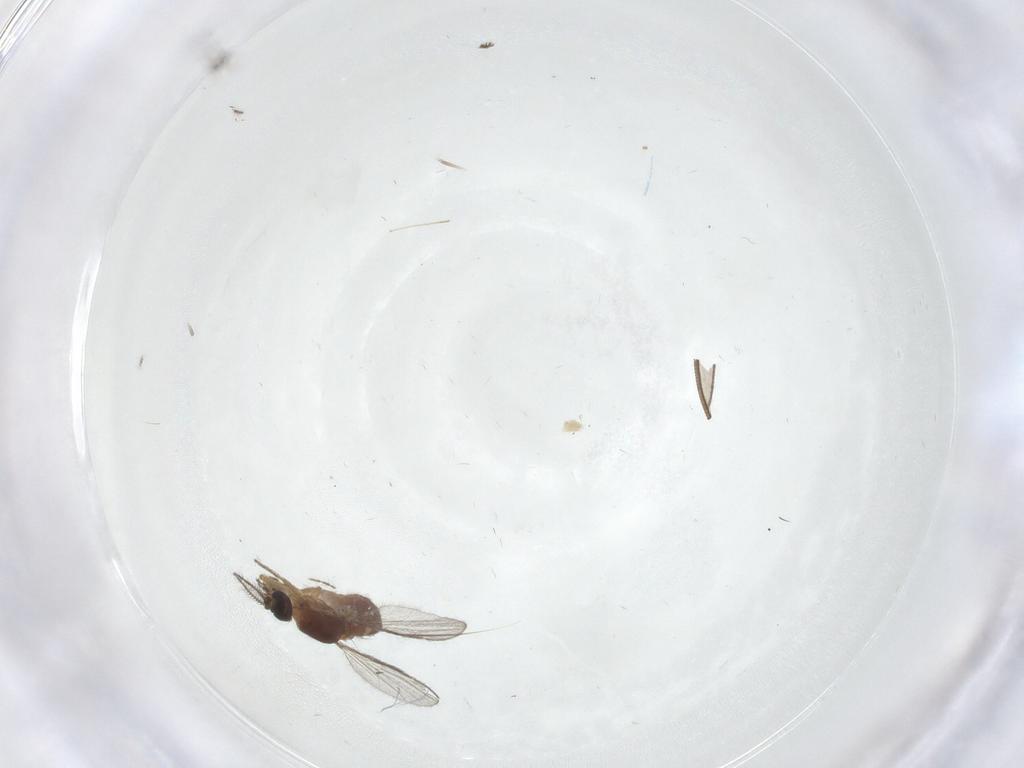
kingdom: Animalia
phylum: Arthropoda
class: Insecta
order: Diptera
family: Ceratopogonidae
